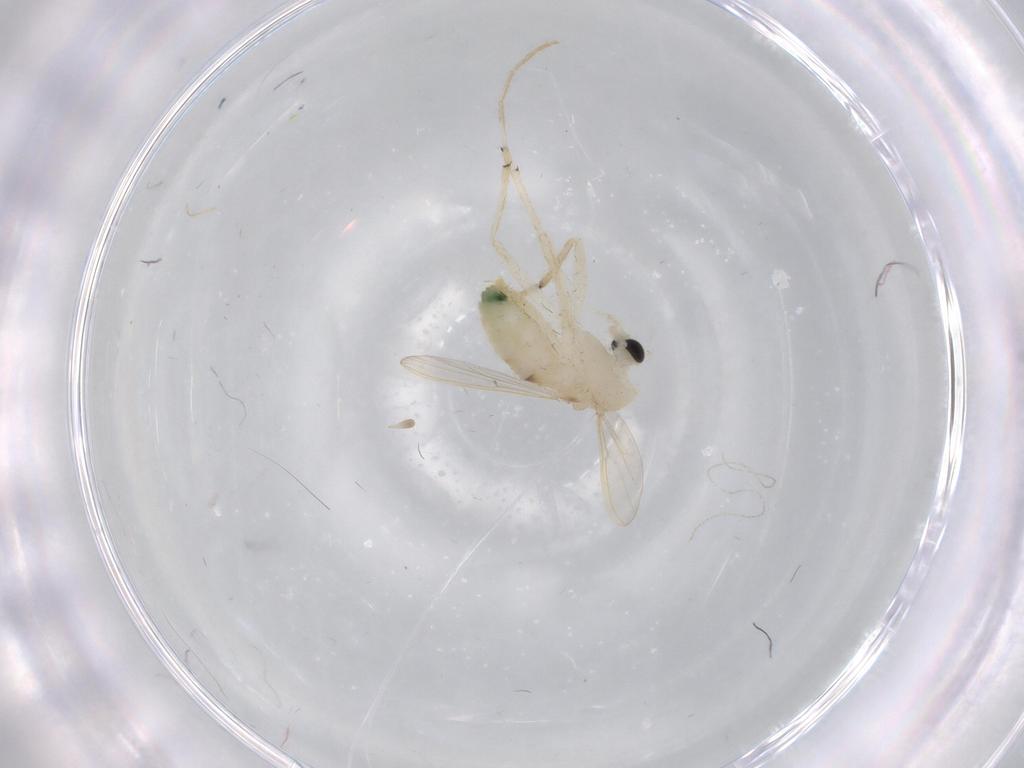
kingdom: Animalia
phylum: Arthropoda
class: Insecta
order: Diptera
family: Chironomidae
